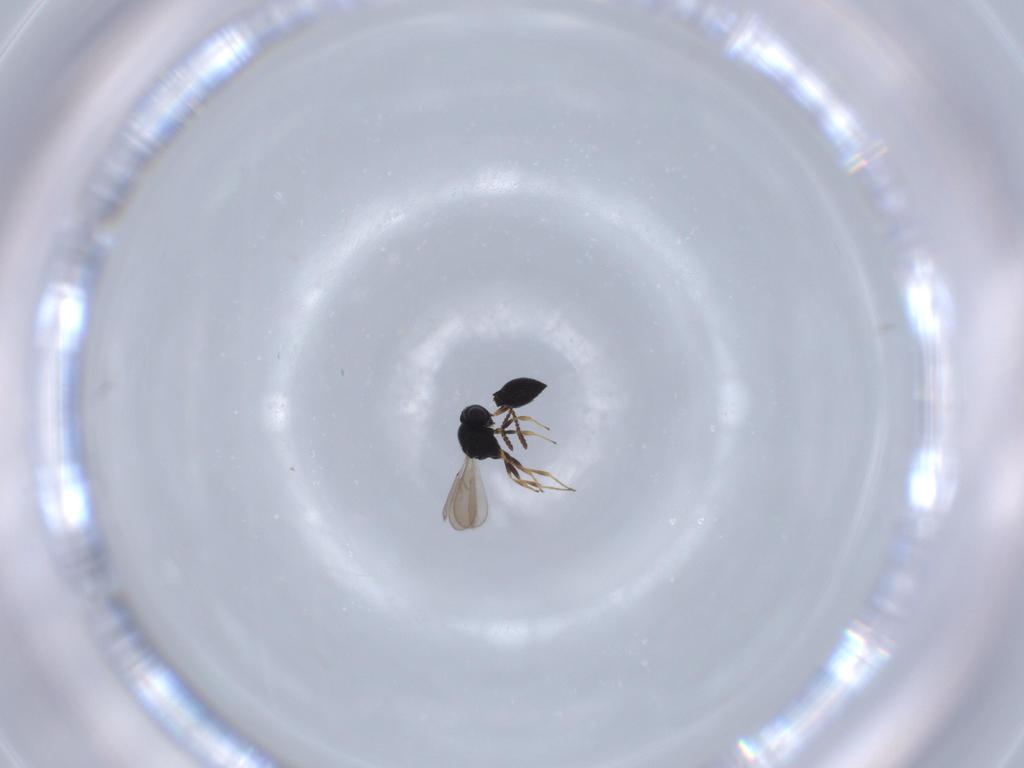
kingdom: Animalia
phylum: Arthropoda
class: Insecta
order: Hymenoptera
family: Scelionidae
